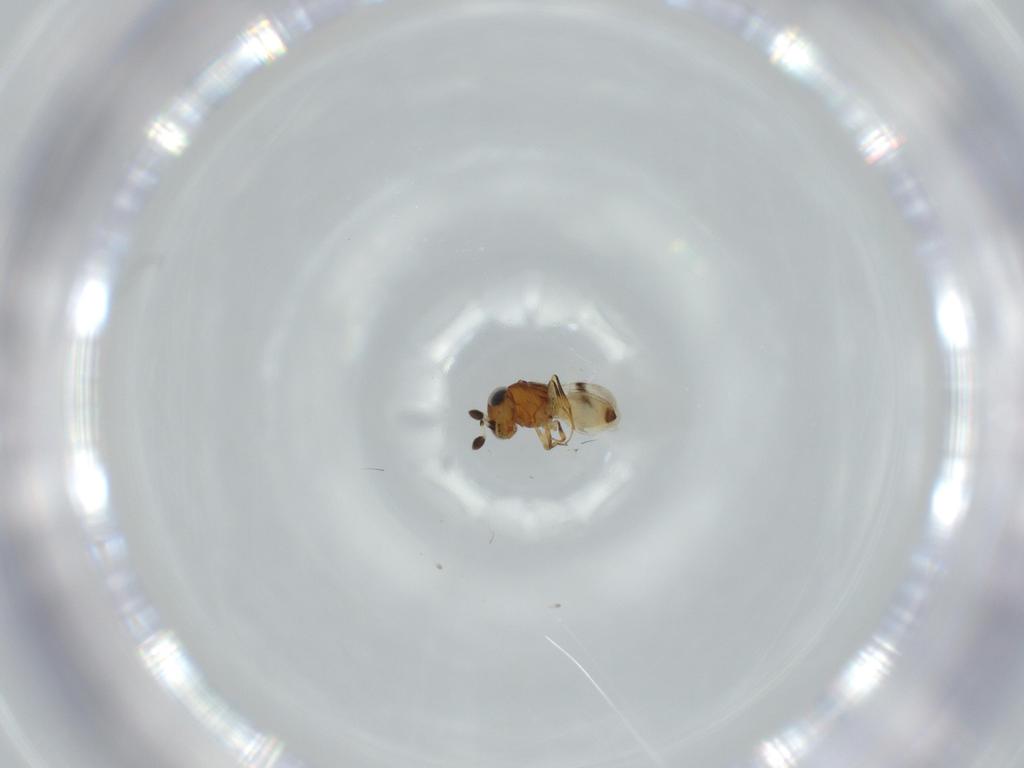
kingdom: Animalia
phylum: Arthropoda
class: Arachnida
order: Araneae
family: Pholcidae
